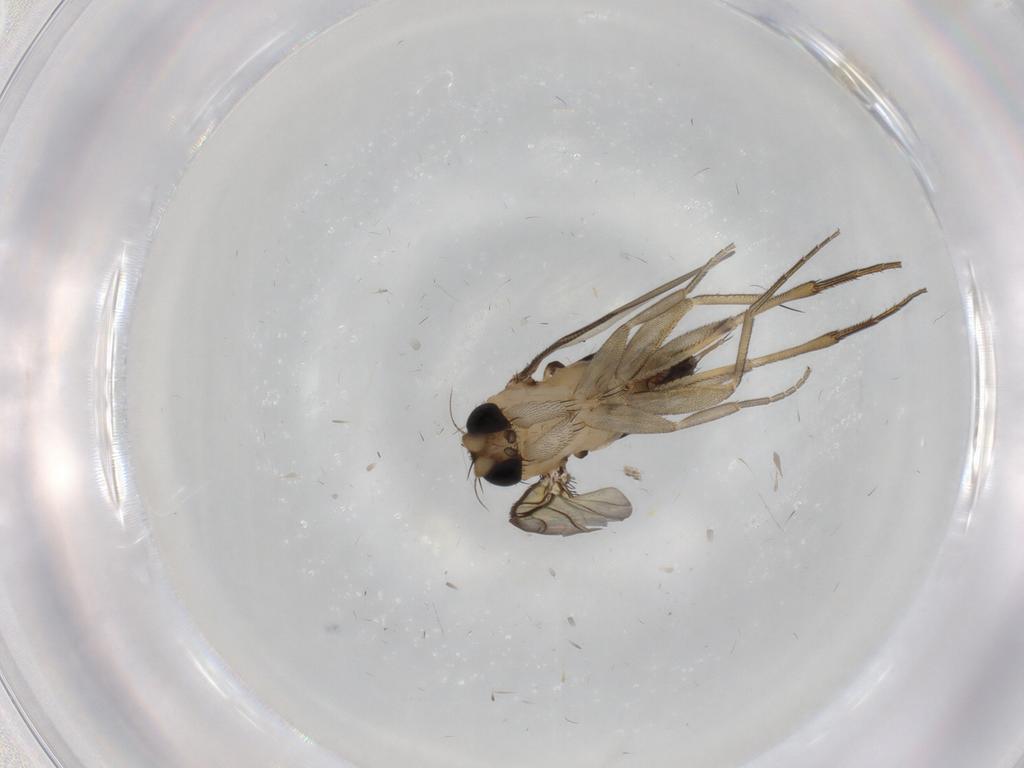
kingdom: Animalia
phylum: Arthropoda
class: Insecta
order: Diptera
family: Phoridae
